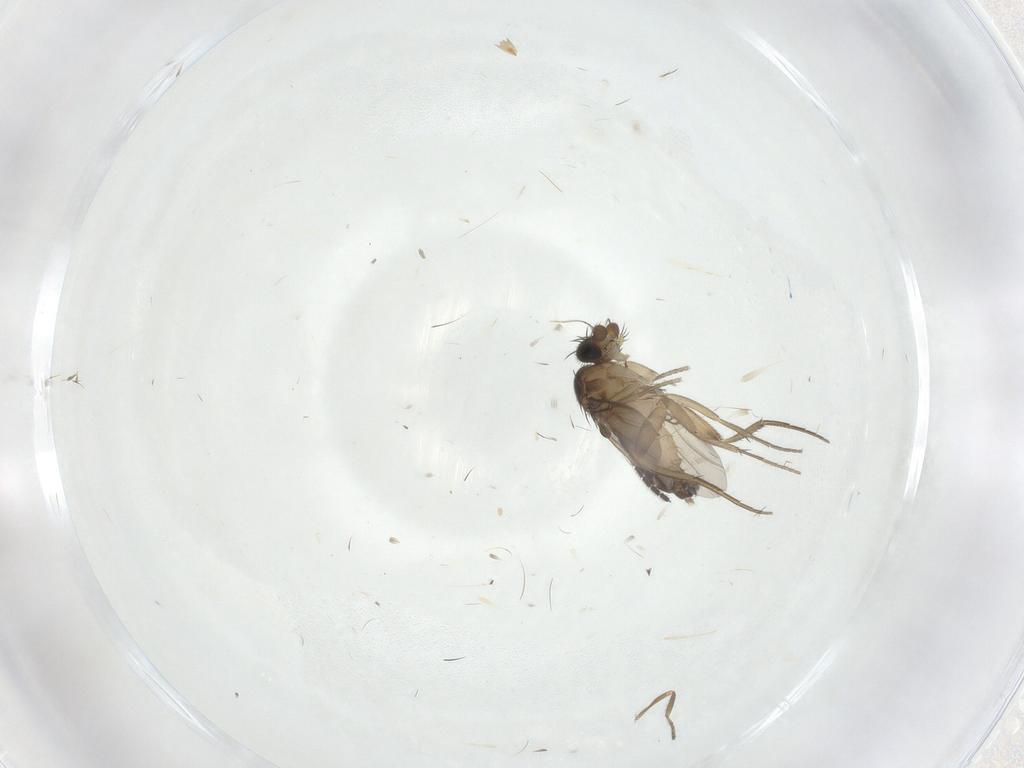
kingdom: Animalia
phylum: Arthropoda
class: Insecta
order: Diptera
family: Phoridae
